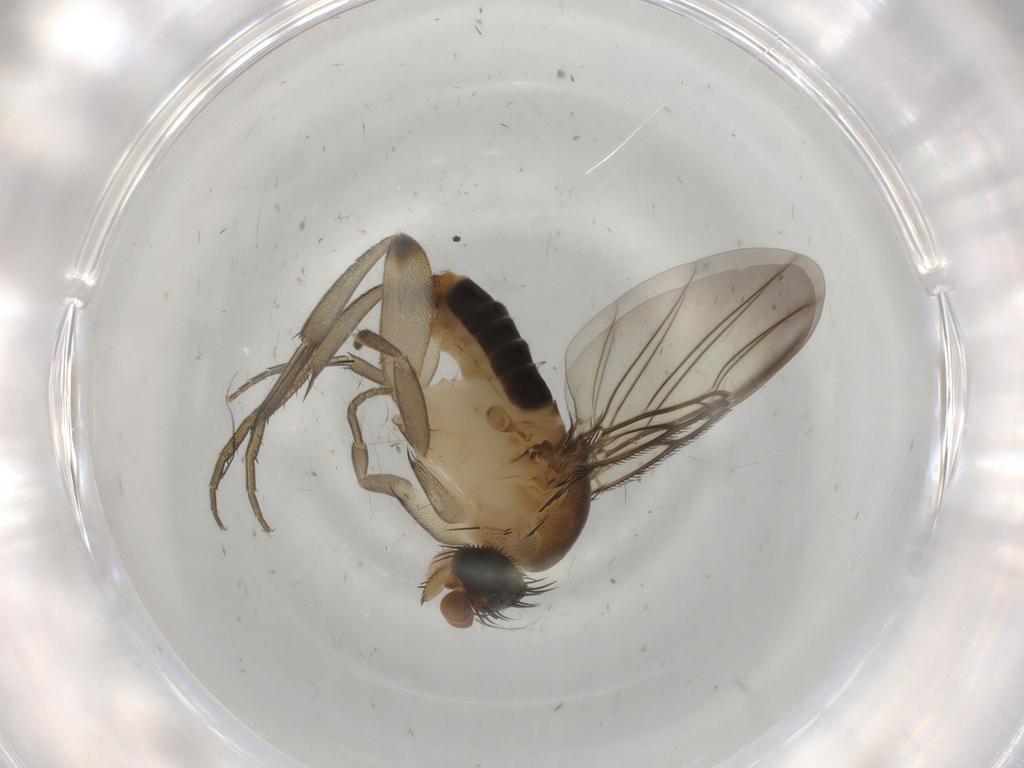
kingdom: Animalia
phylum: Arthropoda
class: Insecta
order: Diptera
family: Phoridae
